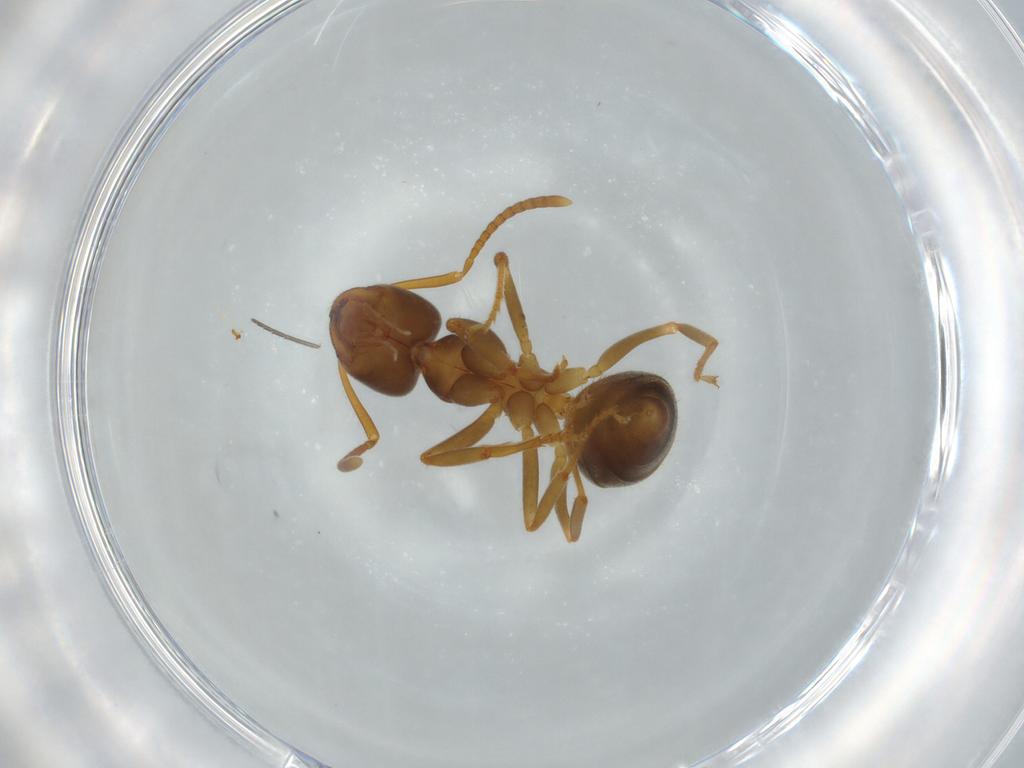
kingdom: Animalia
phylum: Arthropoda
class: Insecta
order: Hymenoptera
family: Formicidae
